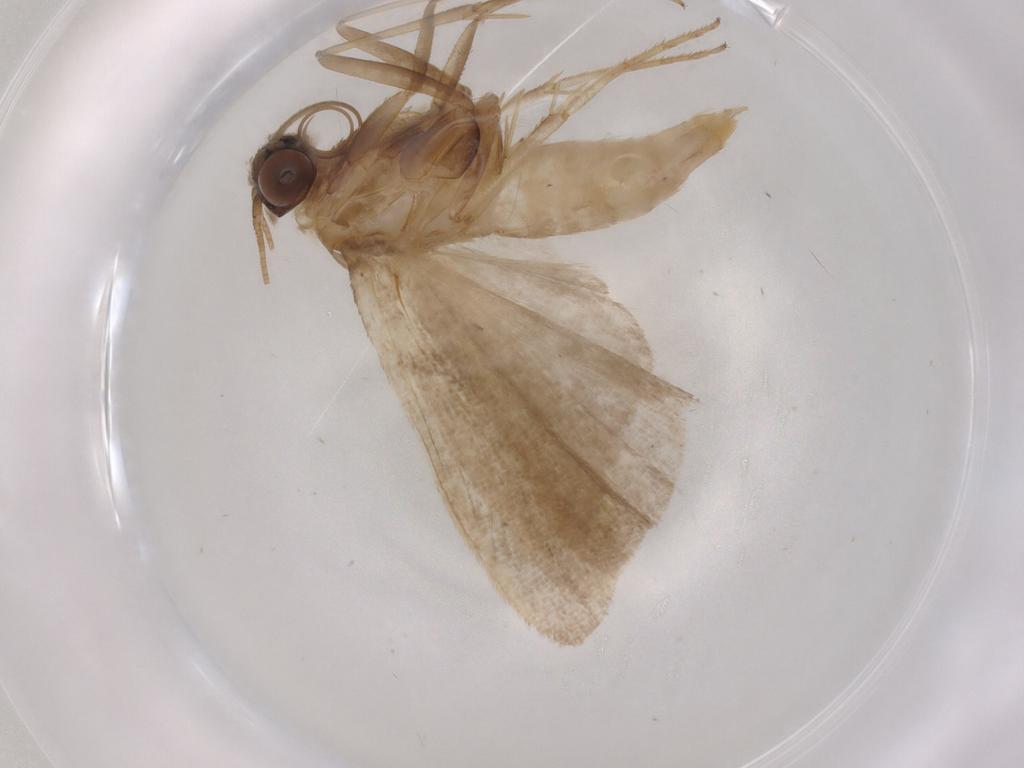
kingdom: Animalia
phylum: Arthropoda
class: Insecta
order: Lepidoptera
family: Noctuidae
